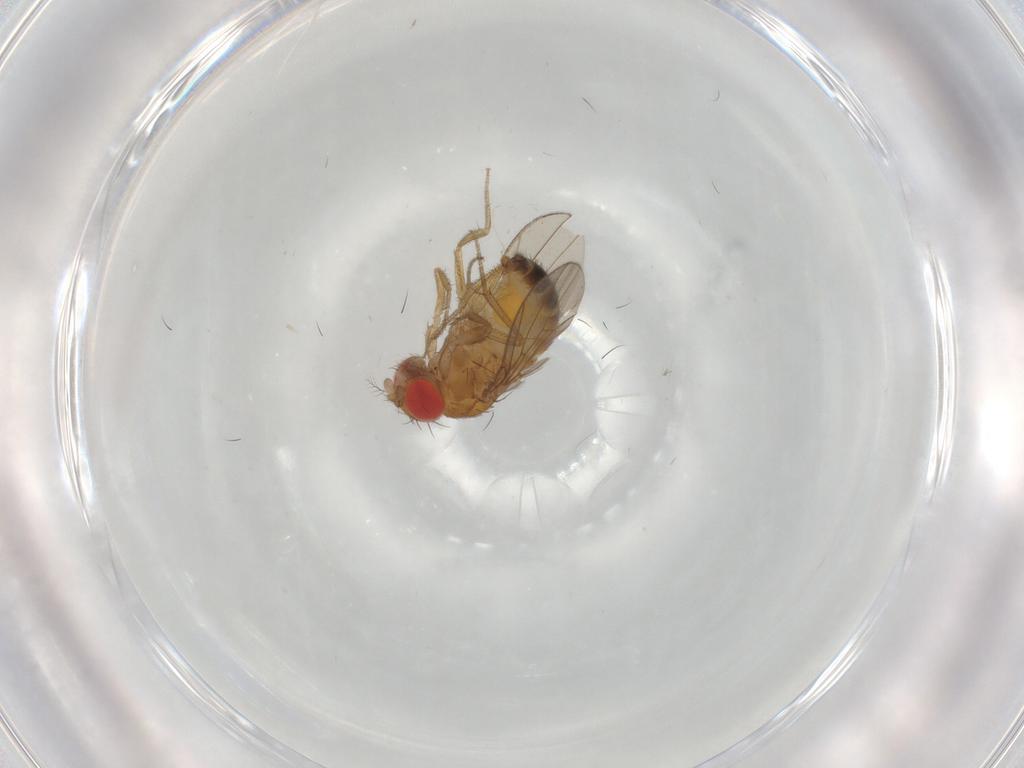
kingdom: Animalia
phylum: Arthropoda
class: Insecta
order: Diptera
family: Drosophilidae
